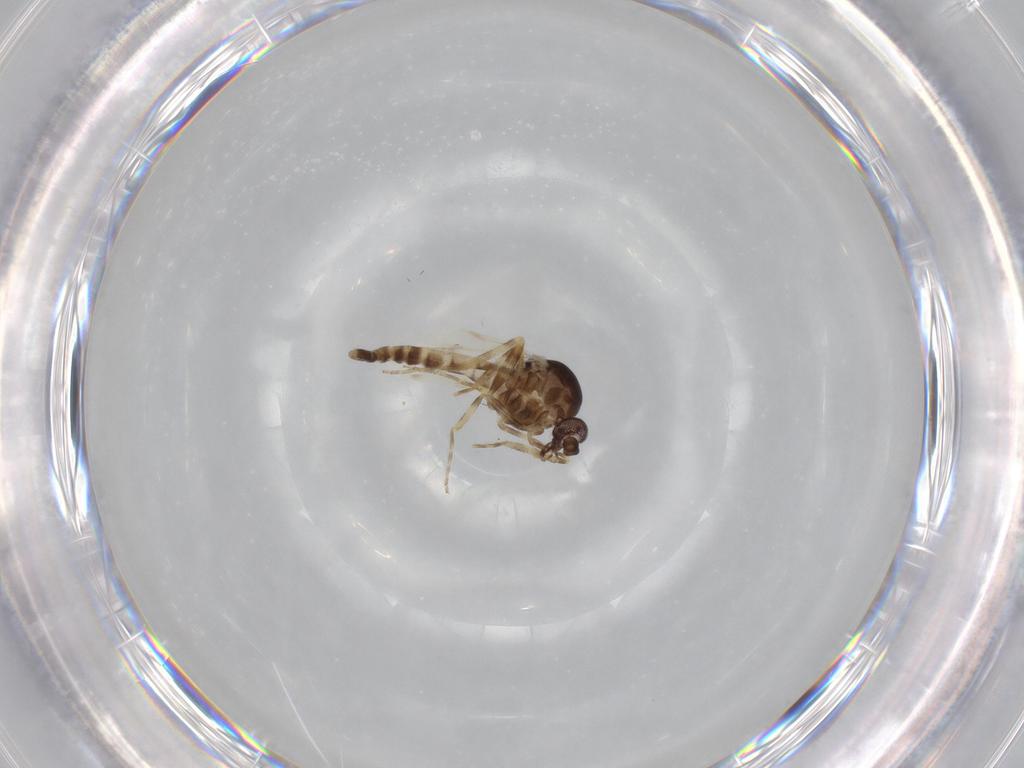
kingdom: Animalia
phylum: Arthropoda
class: Insecta
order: Diptera
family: Ceratopogonidae
